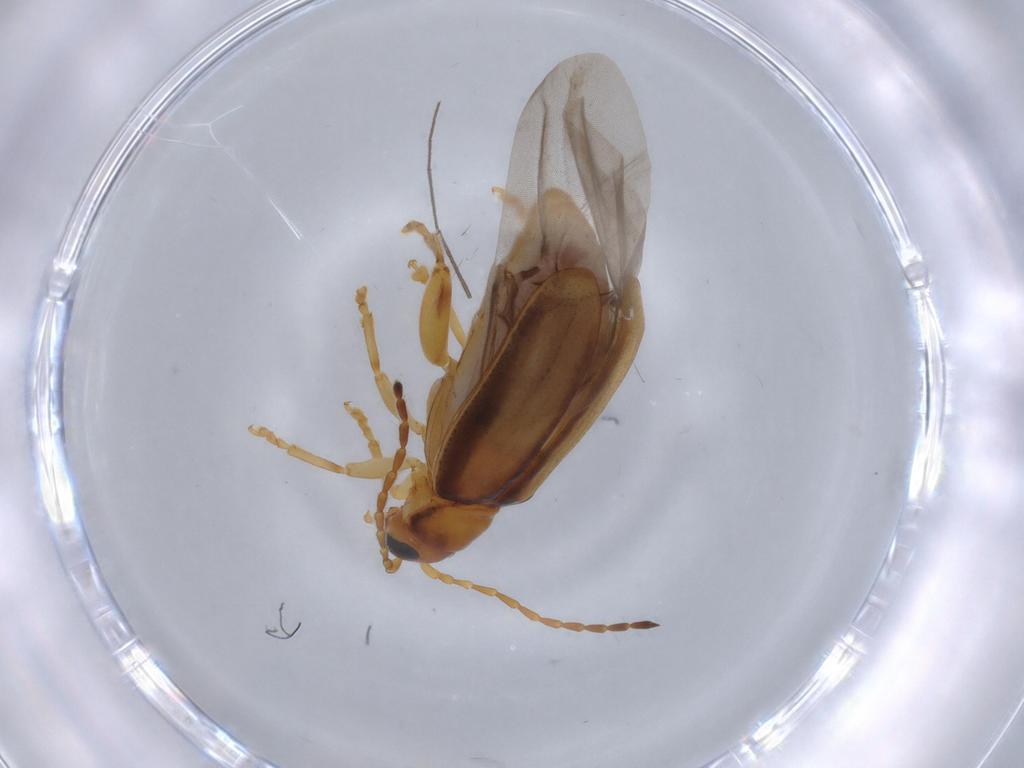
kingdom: Animalia
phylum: Arthropoda
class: Insecta
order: Coleoptera
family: Chrysomelidae
